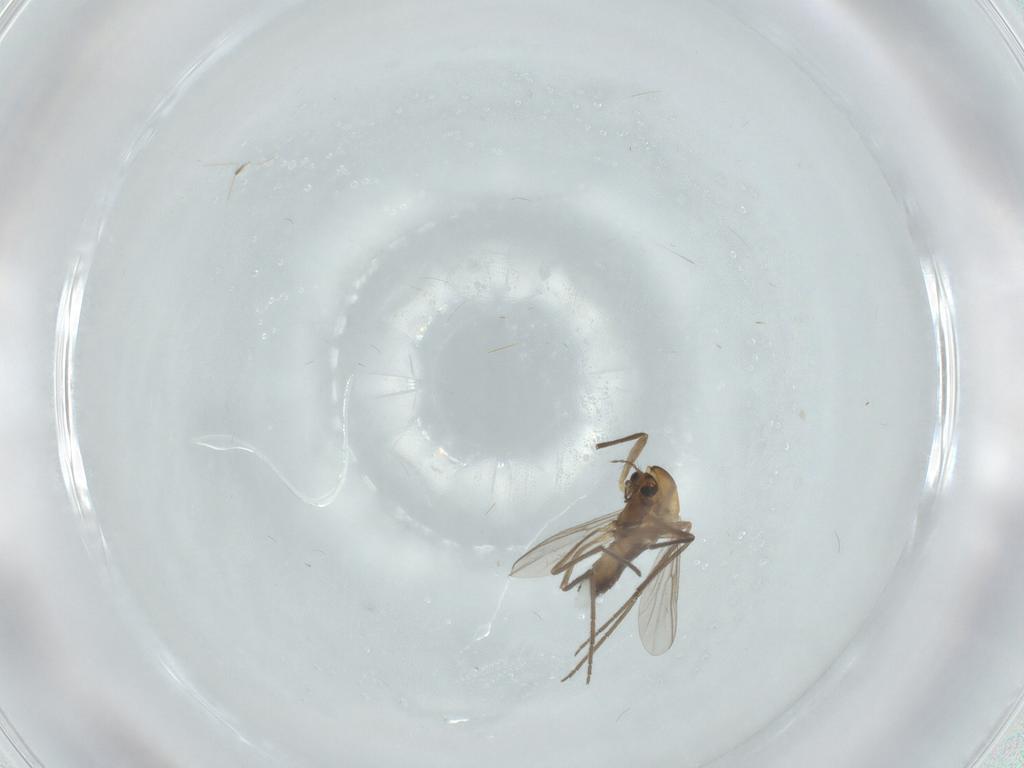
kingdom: Animalia
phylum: Arthropoda
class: Insecta
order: Diptera
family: Chironomidae
